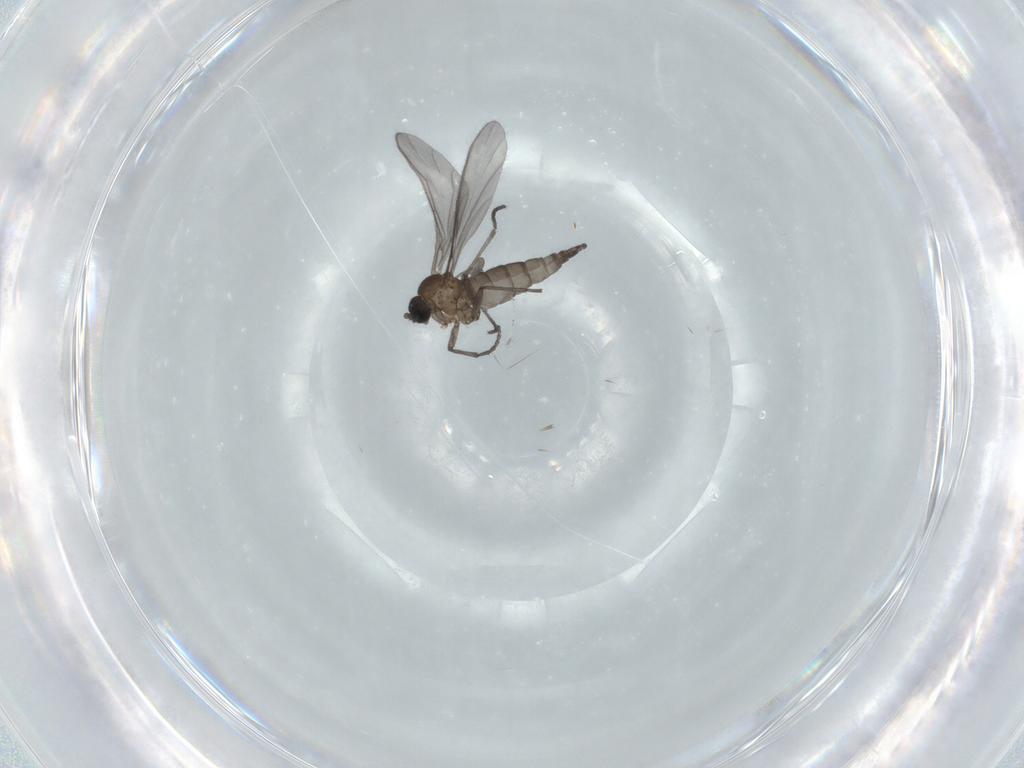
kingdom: Animalia
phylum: Arthropoda
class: Insecta
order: Diptera
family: Sciaridae
